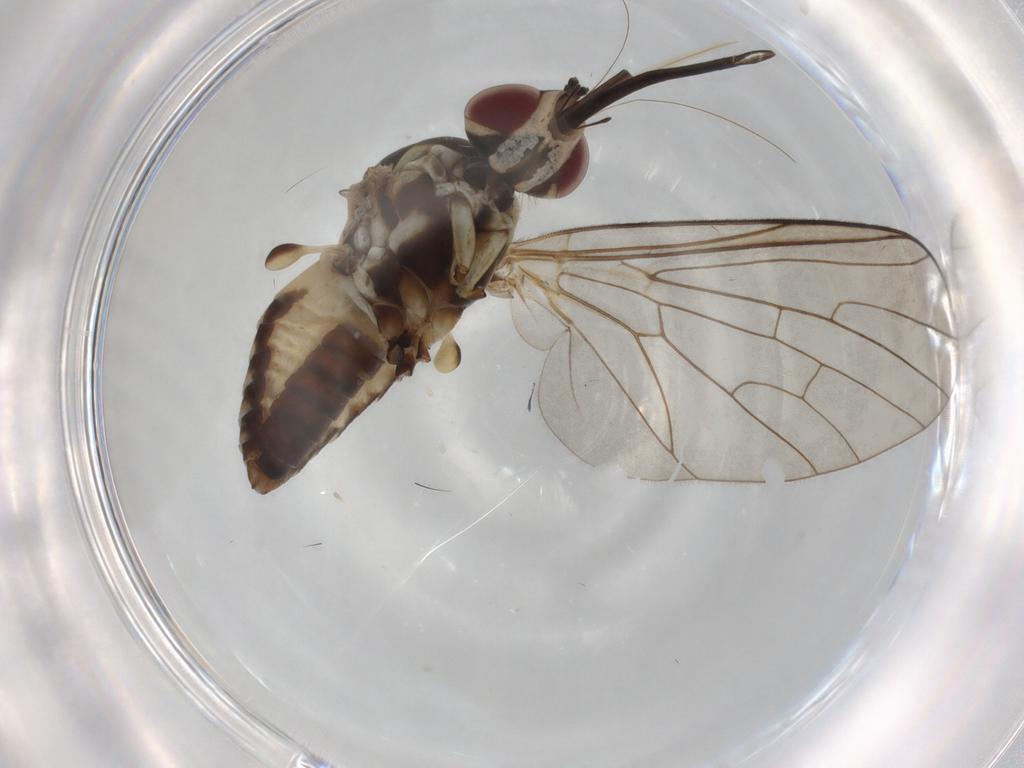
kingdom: Animalia
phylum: Arthropoda
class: Insecta
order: Diptera
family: Bombyliidae
